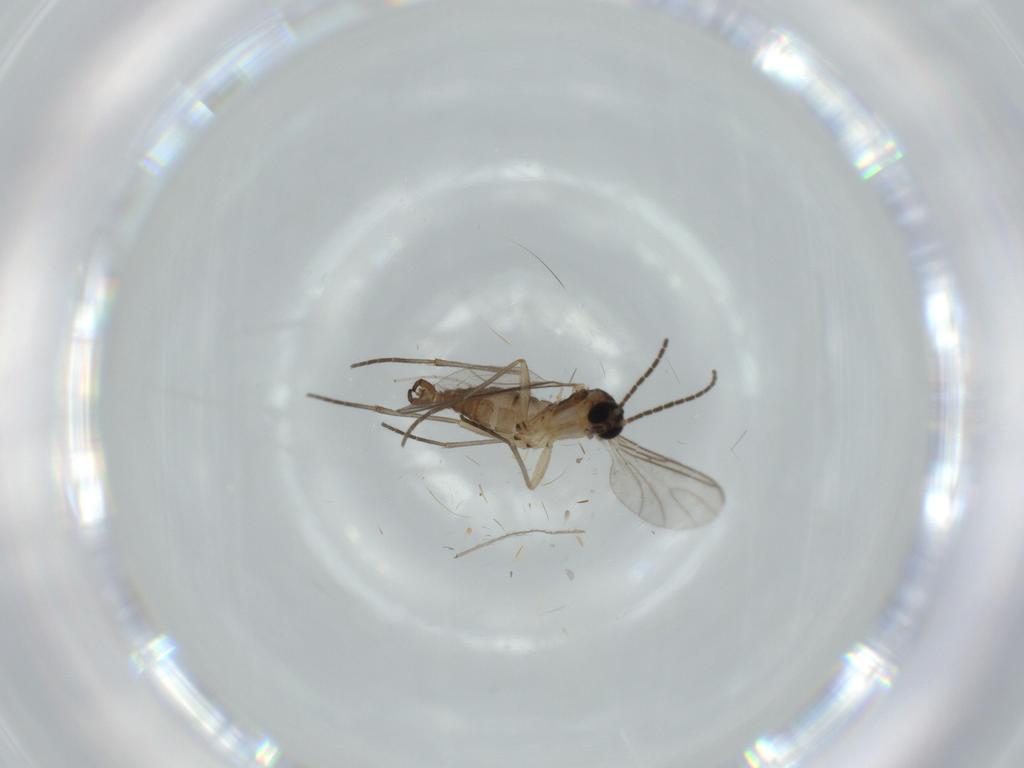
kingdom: Animalia
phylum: Arthropoda
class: Insecta
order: Diptera
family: Sciaridae
